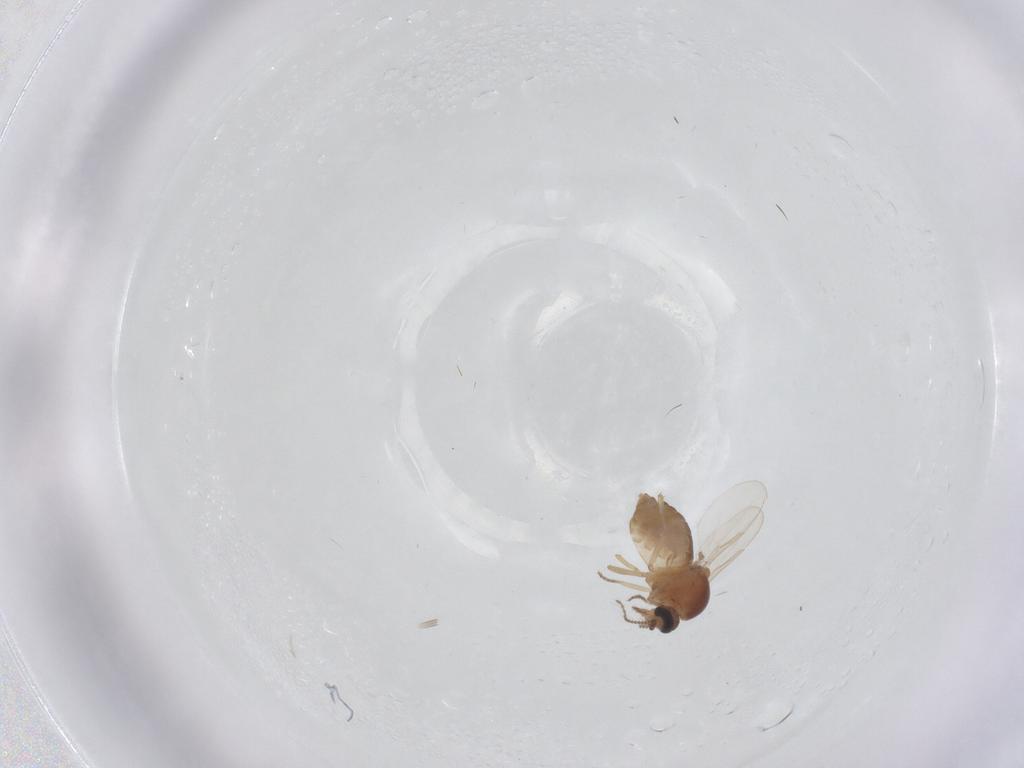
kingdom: Animalia
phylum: Arthropoda
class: Insecta
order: Diptera
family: Ceratopogonidae
